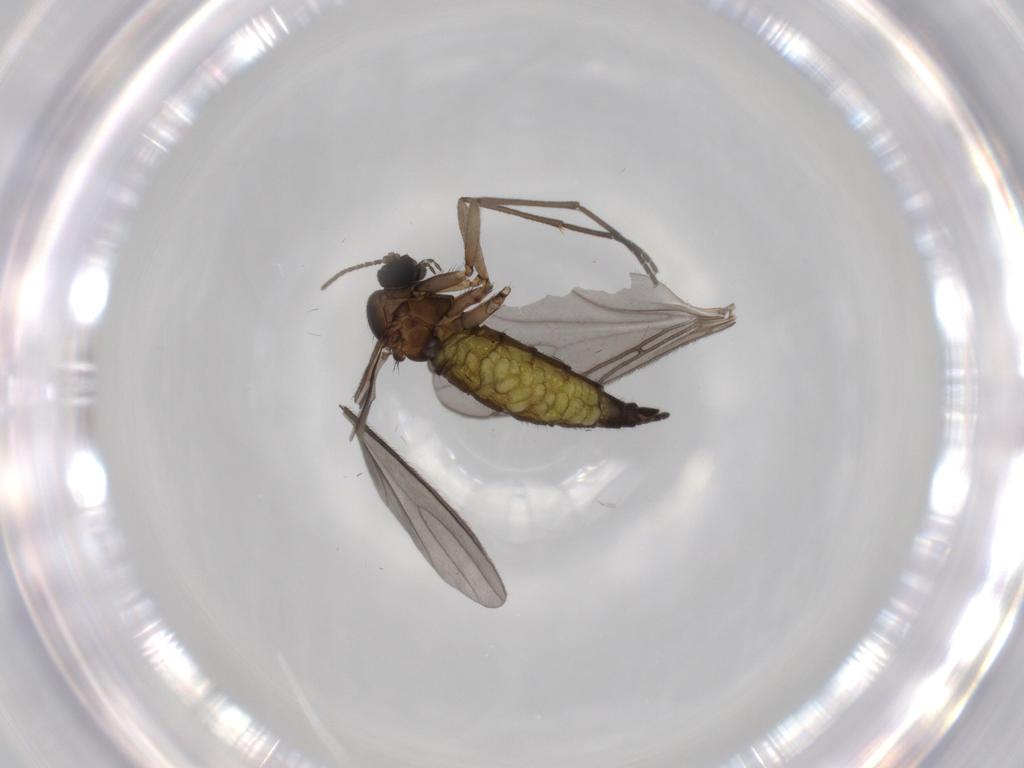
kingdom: Animalia
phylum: Arthropoda
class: Insecta
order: Diptera
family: Sciaridae
